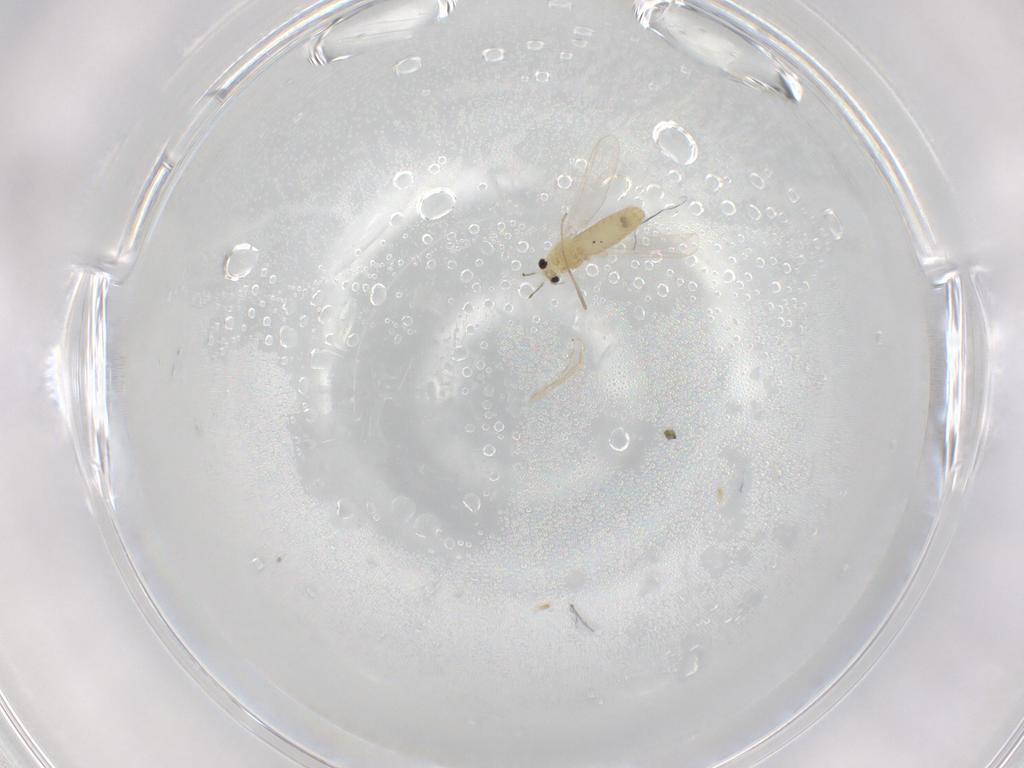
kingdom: Animalia
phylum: Arthropoda
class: Insecta
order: Diptera
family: Chironomidae
